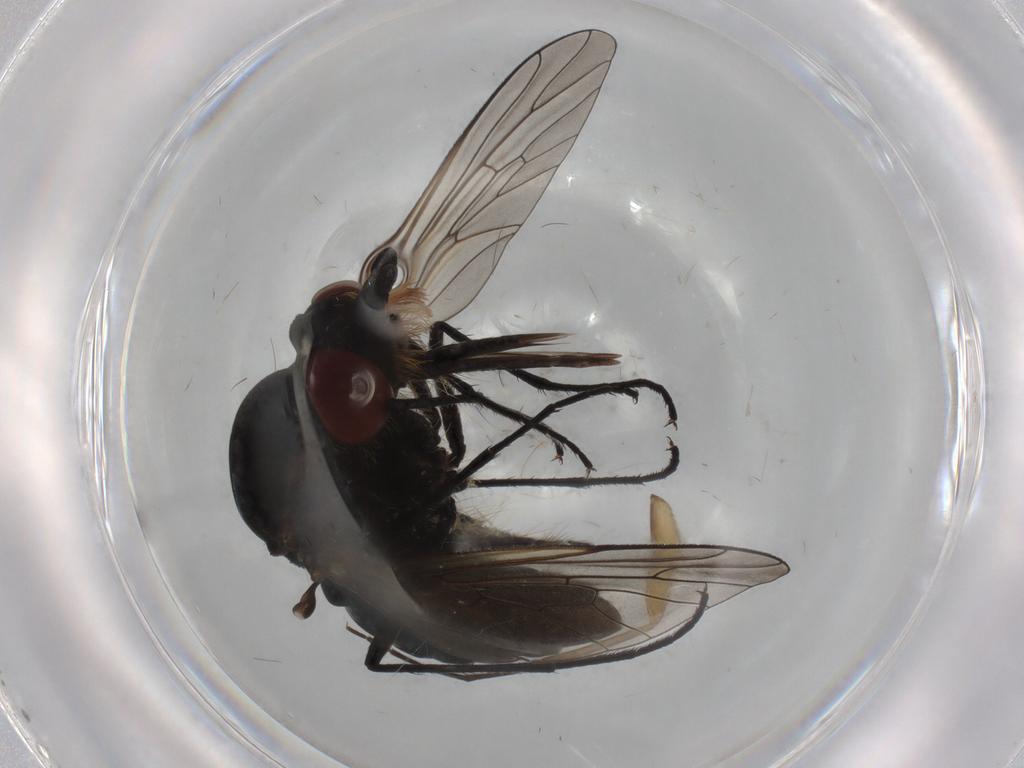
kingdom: Animalia
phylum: Arthropoda
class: Insecta
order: Diptera
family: Bombyliidae
